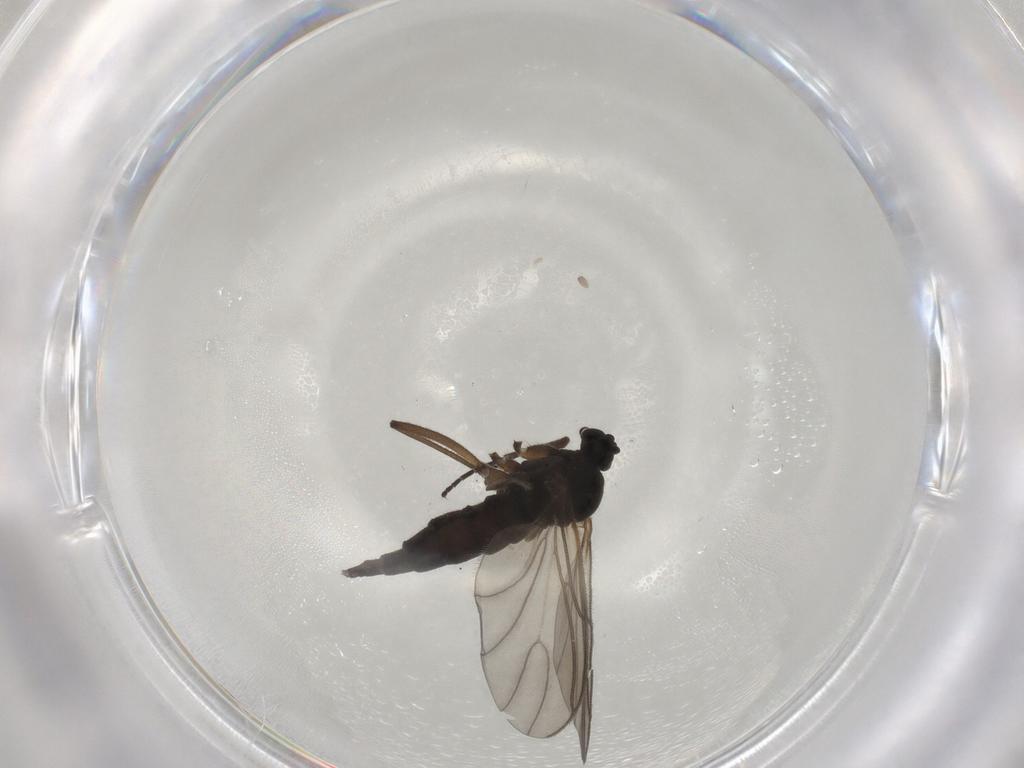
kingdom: Animalia
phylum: Arthropoda
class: Insecta
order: Diptera
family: Sciaridae
